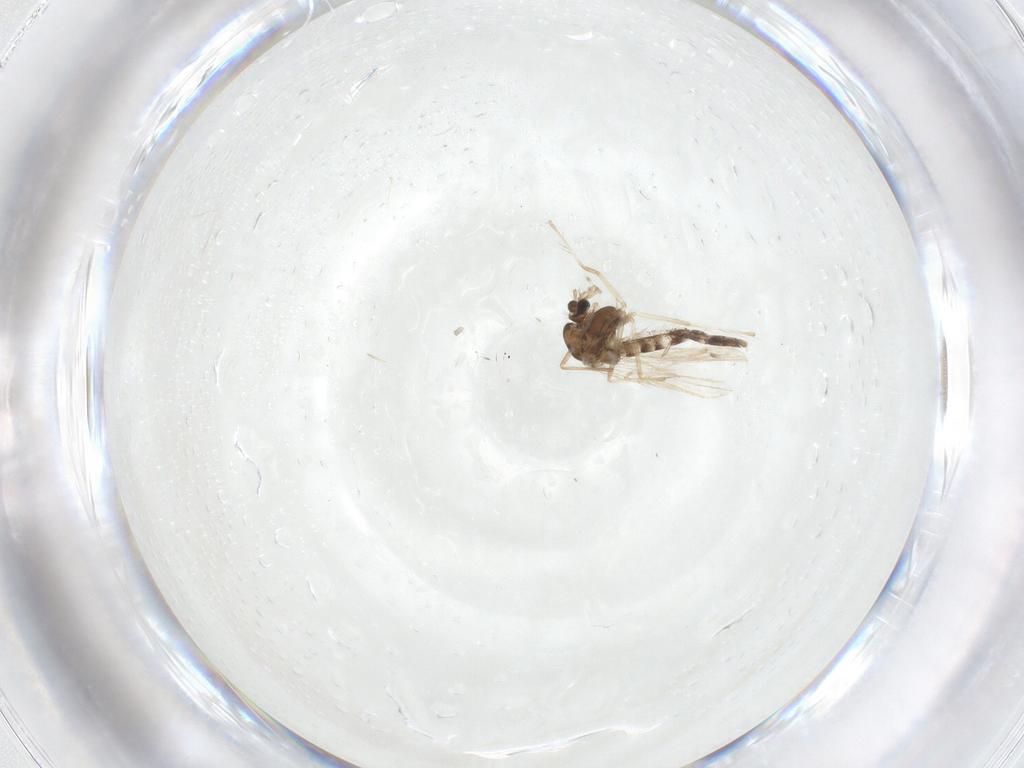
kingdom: Animalia
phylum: Arthropoda
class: Insecta
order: Diptera
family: Chironomidae
